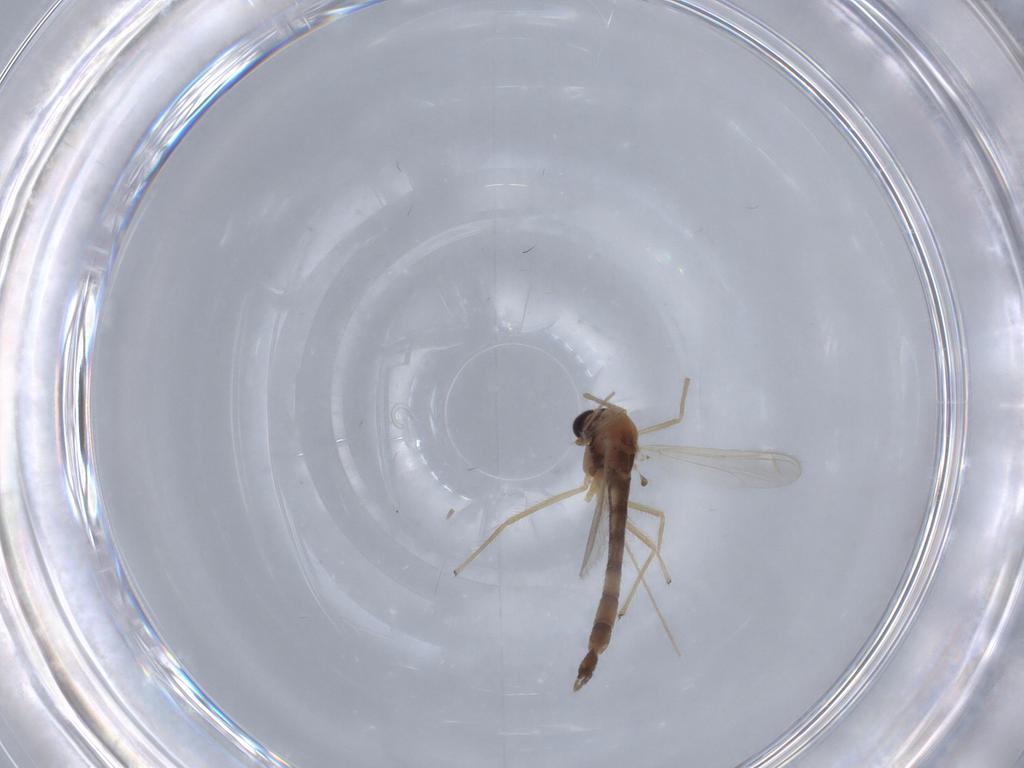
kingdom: Animalia
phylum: Arthropoda
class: Insecta
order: Diptera
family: Chironomidae
